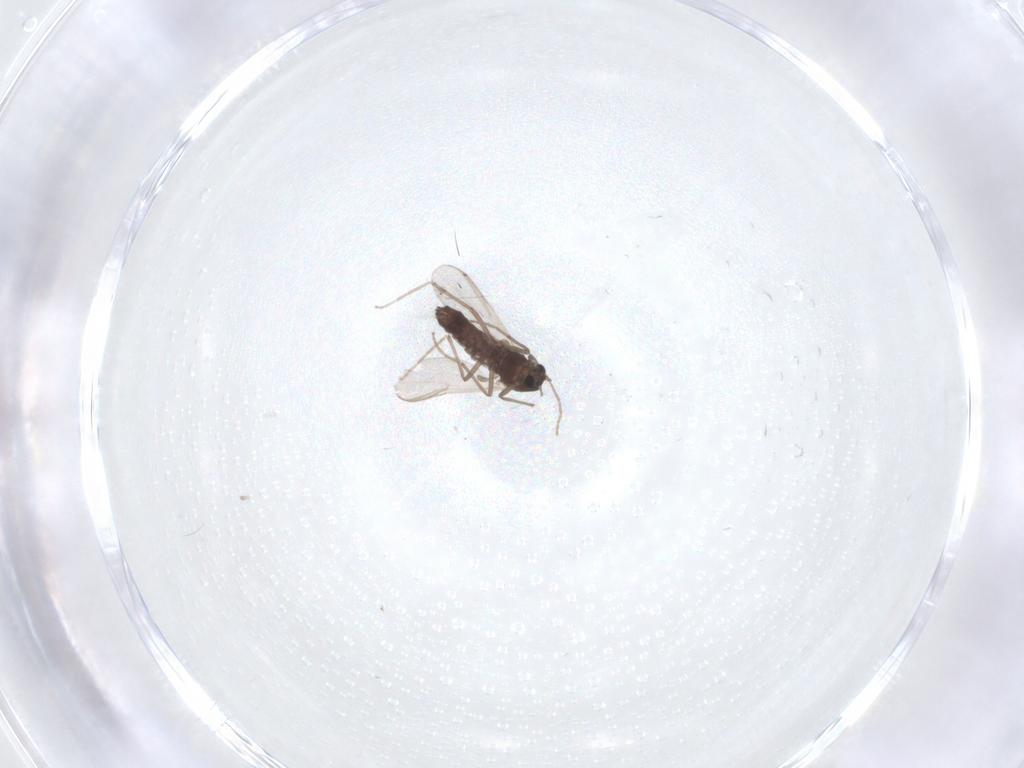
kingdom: Animalia
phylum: Arthropoda
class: Insecta
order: Diptera
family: Chironomidae
